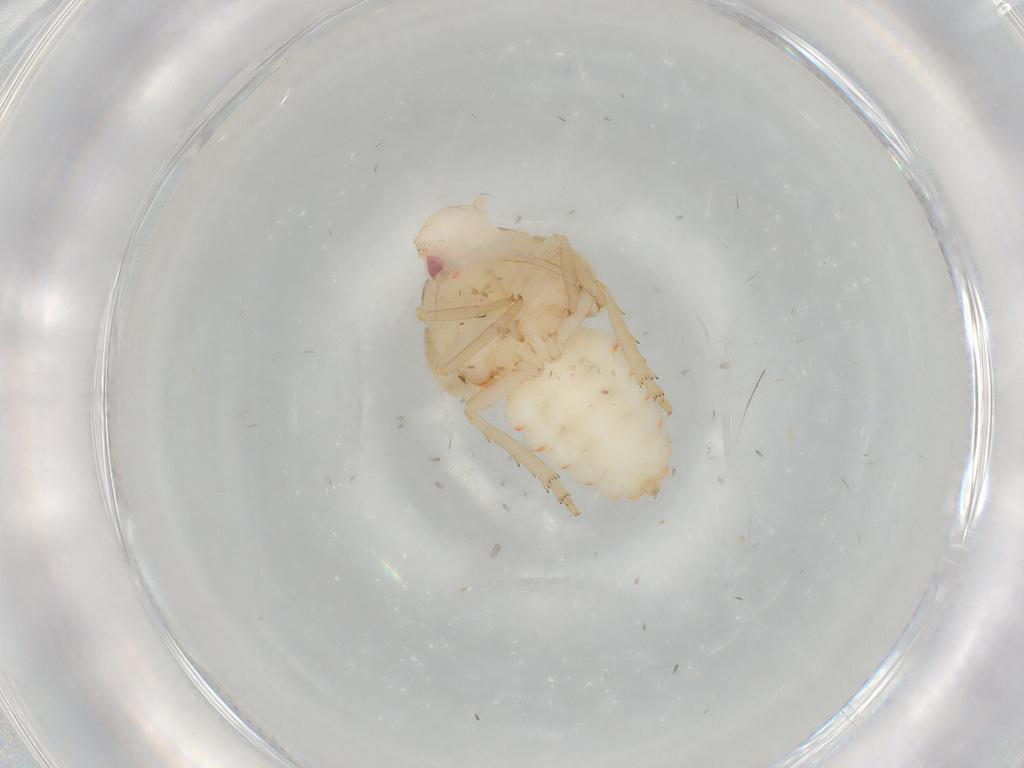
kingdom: Animalia
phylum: Arthropoda
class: Insecta
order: Hemiptera
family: Flatidae
